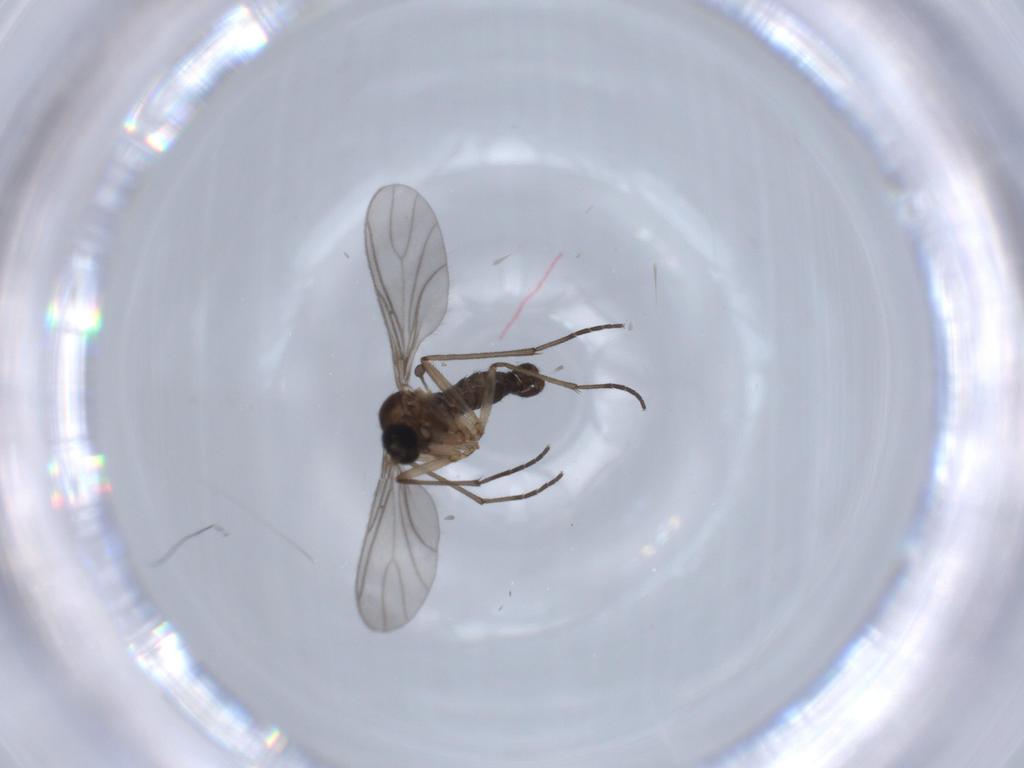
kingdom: Animalia
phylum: Arthropoda
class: Insecta
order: Diptera
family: Sciaridae
